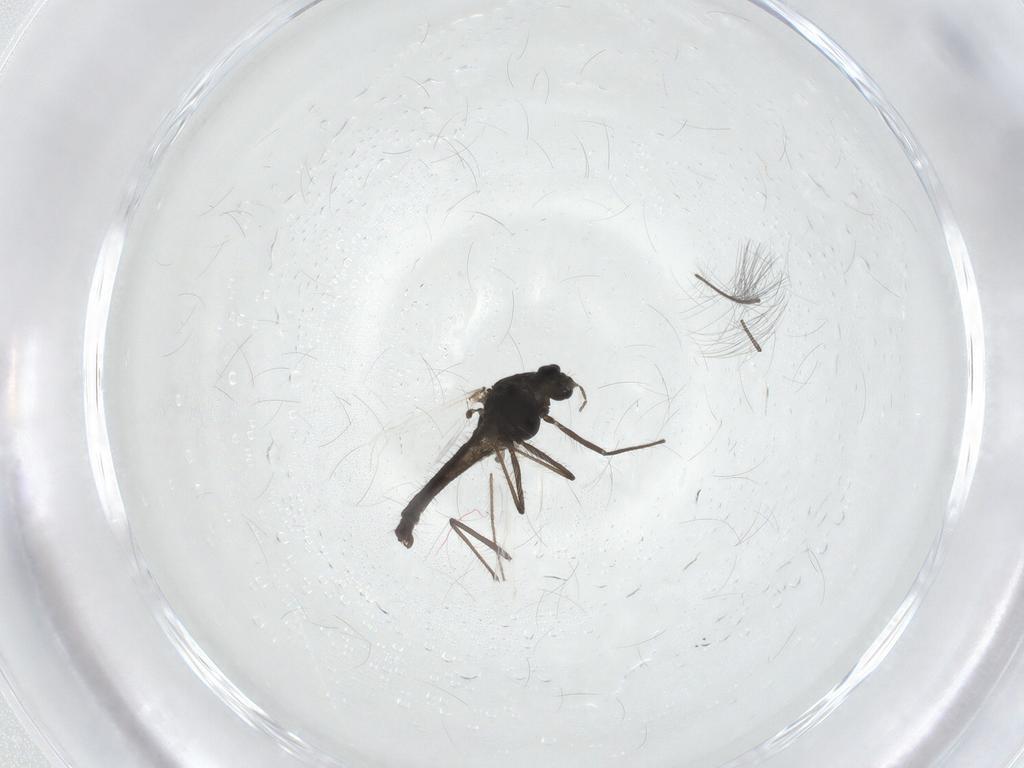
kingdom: Animalia
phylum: Arthropoda
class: Insecta
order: Diptera
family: Chironomidae
